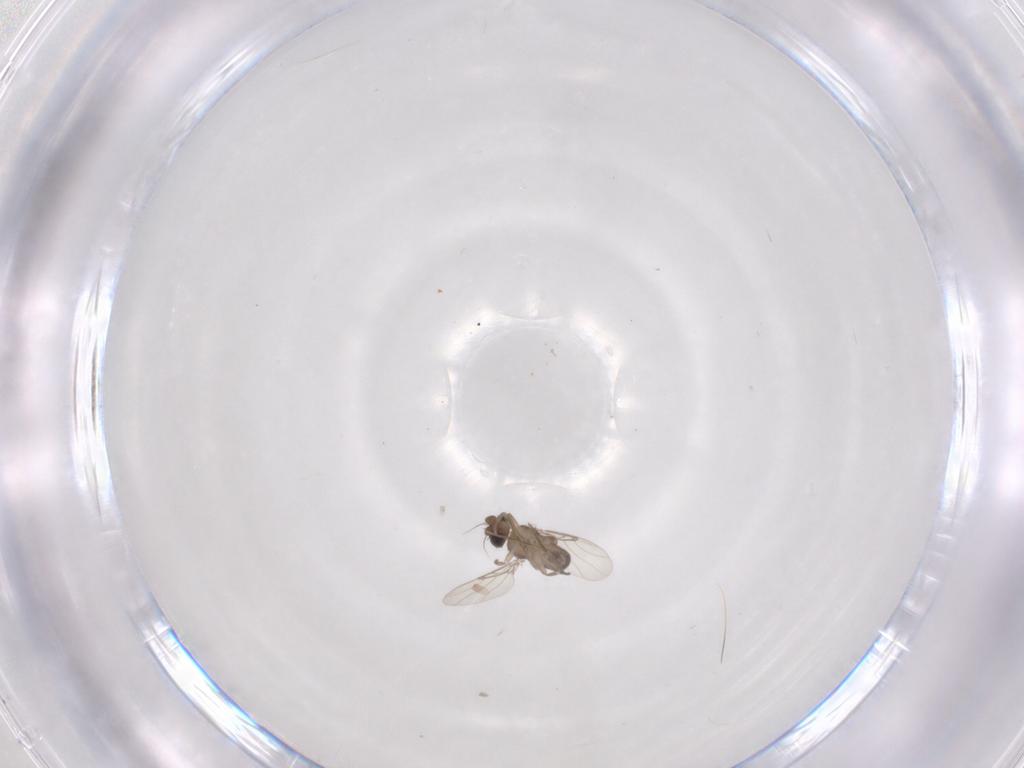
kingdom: Animalia
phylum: Arthropoda
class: Insecta
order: Diptera
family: Phoridae
